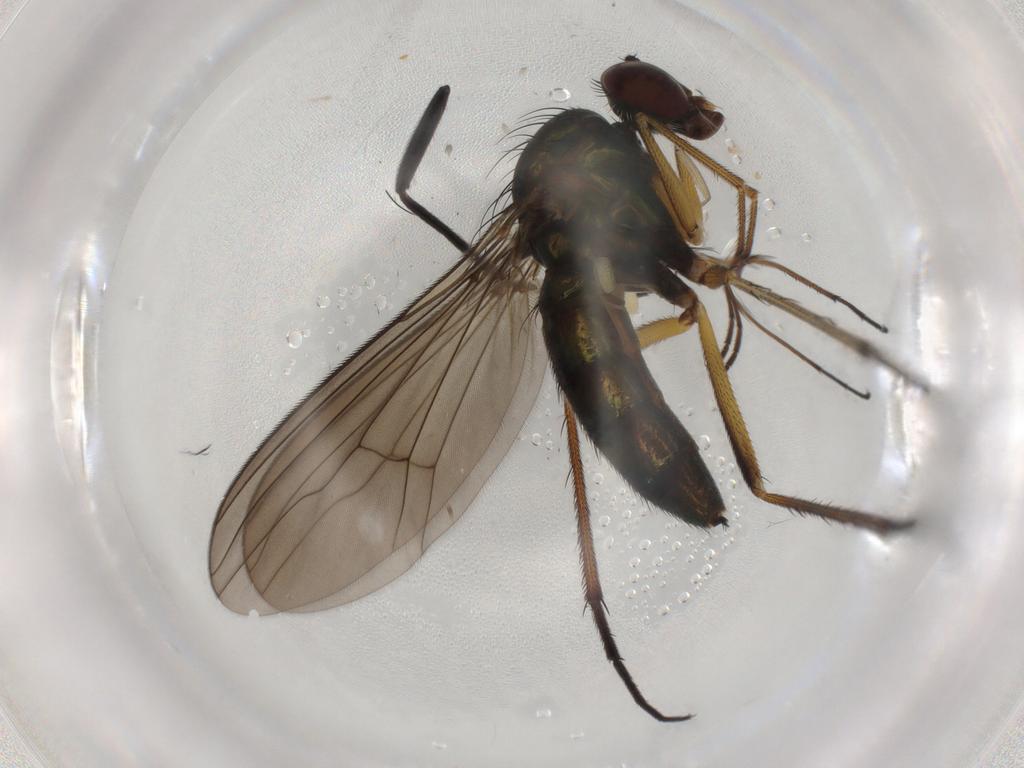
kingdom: Animalia
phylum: Arthropoda
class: Insecta
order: Diptera
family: Dolichopodidae
